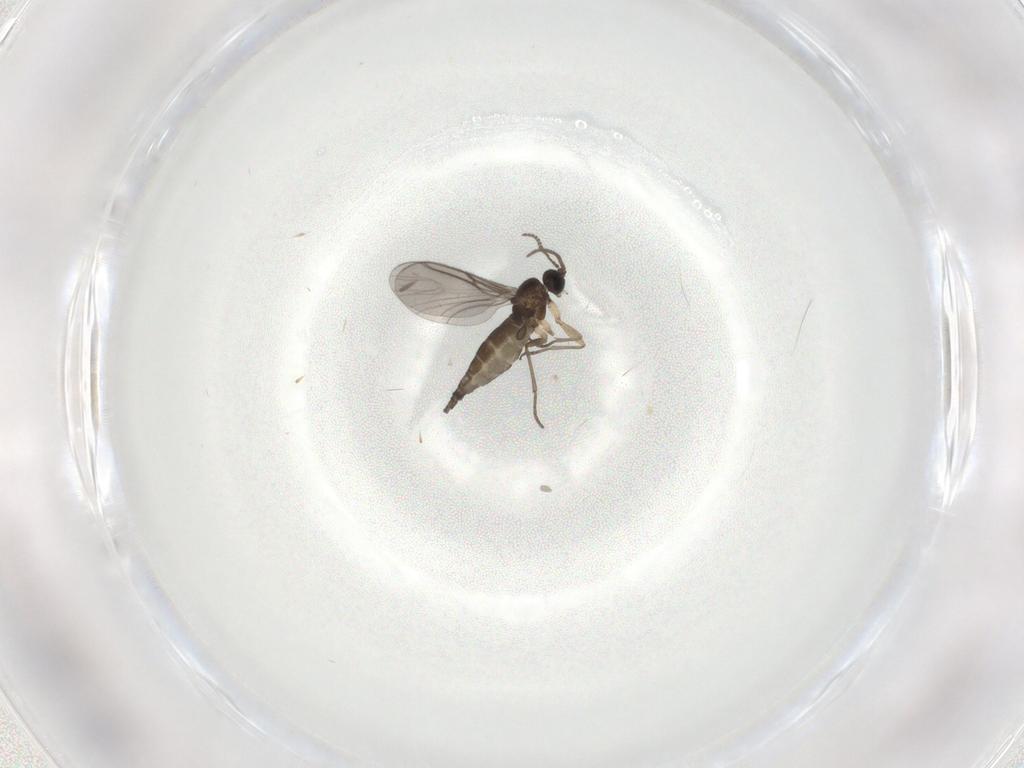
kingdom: Animalia
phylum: Arthropoda
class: Insecta
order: Diptera
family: Sciaridae
